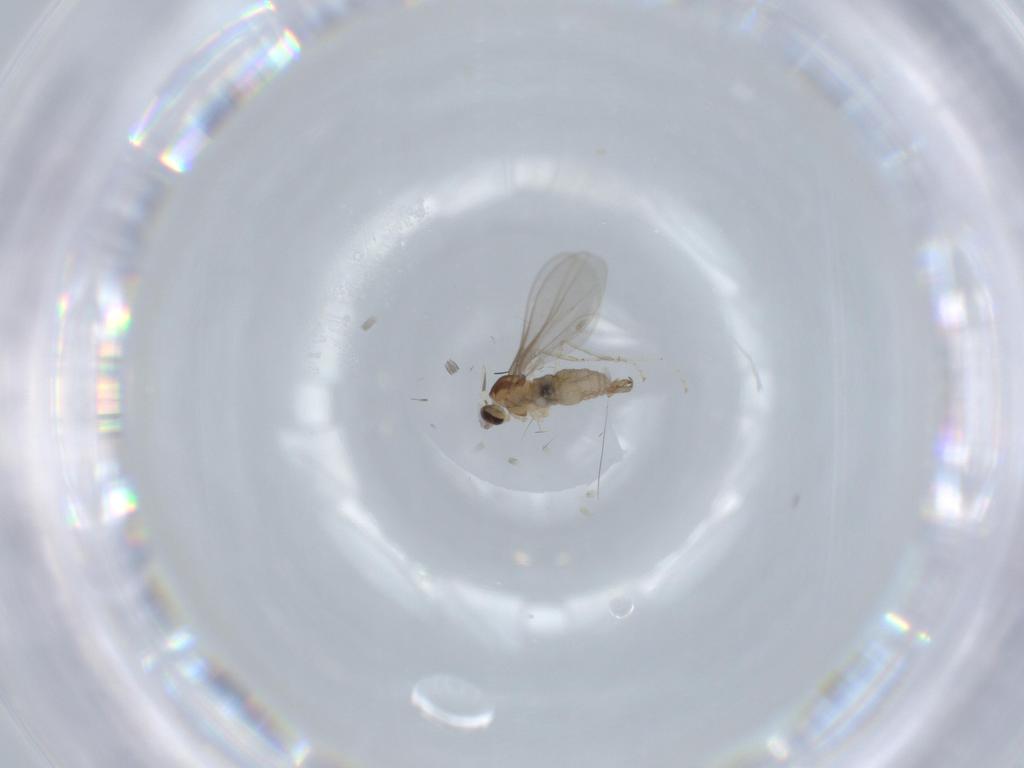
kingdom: Animalia
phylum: Arthropoda
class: Insecta
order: Diptera
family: Cecidomyiidae
